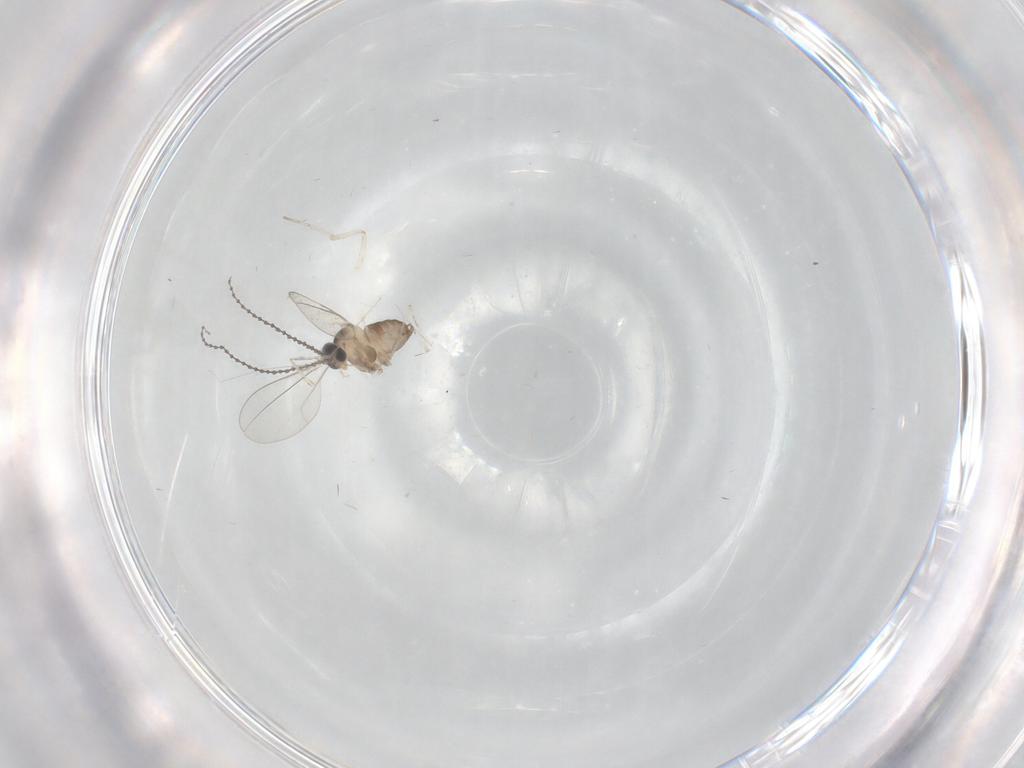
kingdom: Animalia
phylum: Arthropoda
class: Insecta
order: Diptera
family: Cecidomyiidae
